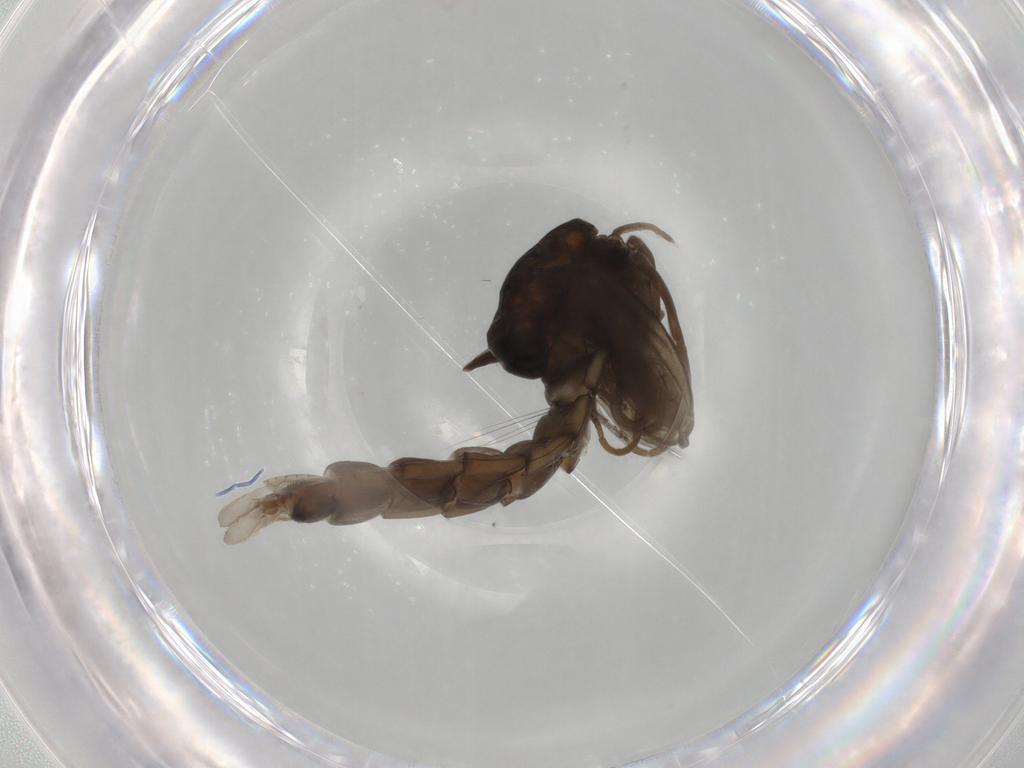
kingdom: Animalia
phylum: Arthropoda
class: Insecta
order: Diptera
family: Chironomidae
